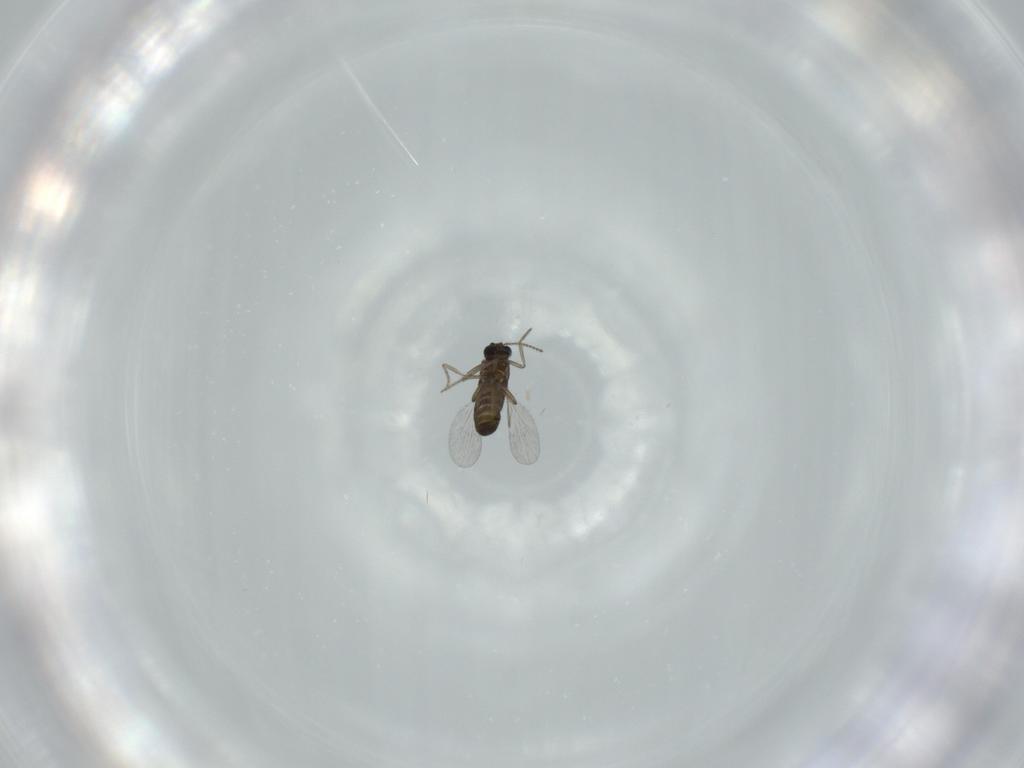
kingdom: Animalia
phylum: Arthropoda
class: Insecta
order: Diptera
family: Ceratopogonidae
